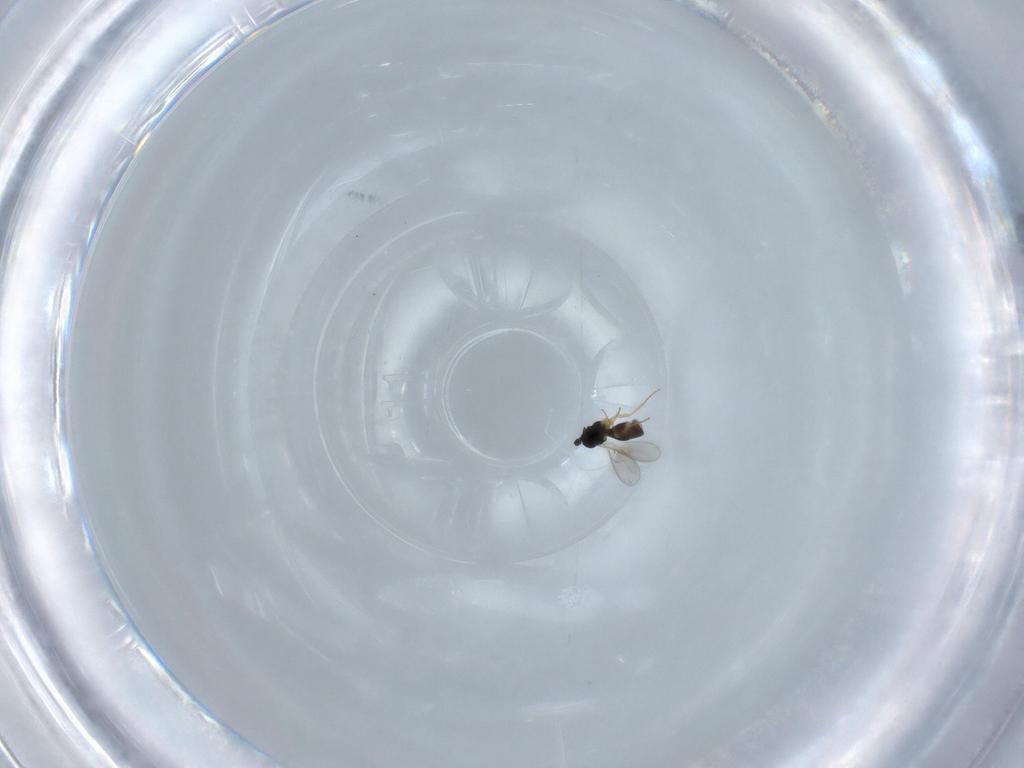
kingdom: Animalia
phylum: Arthropoda
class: Insecta
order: Hymenoptera
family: Scelionidae
